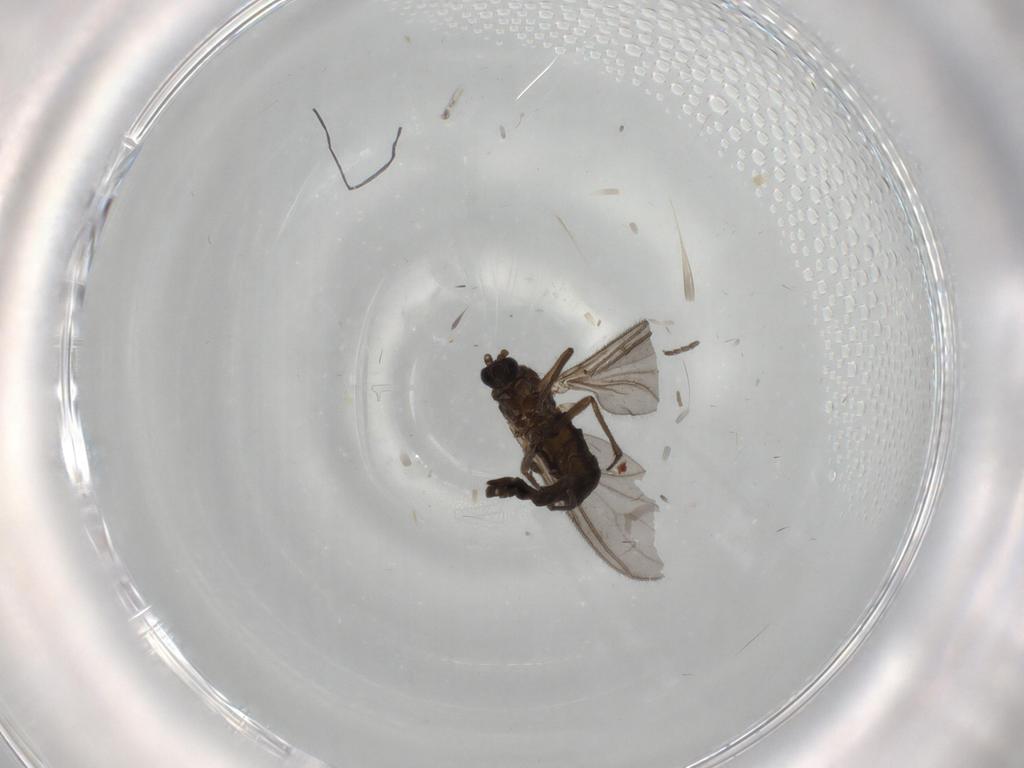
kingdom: Animalia
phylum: Arthropoda
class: Insecta
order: Diptera
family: Sciaridae
